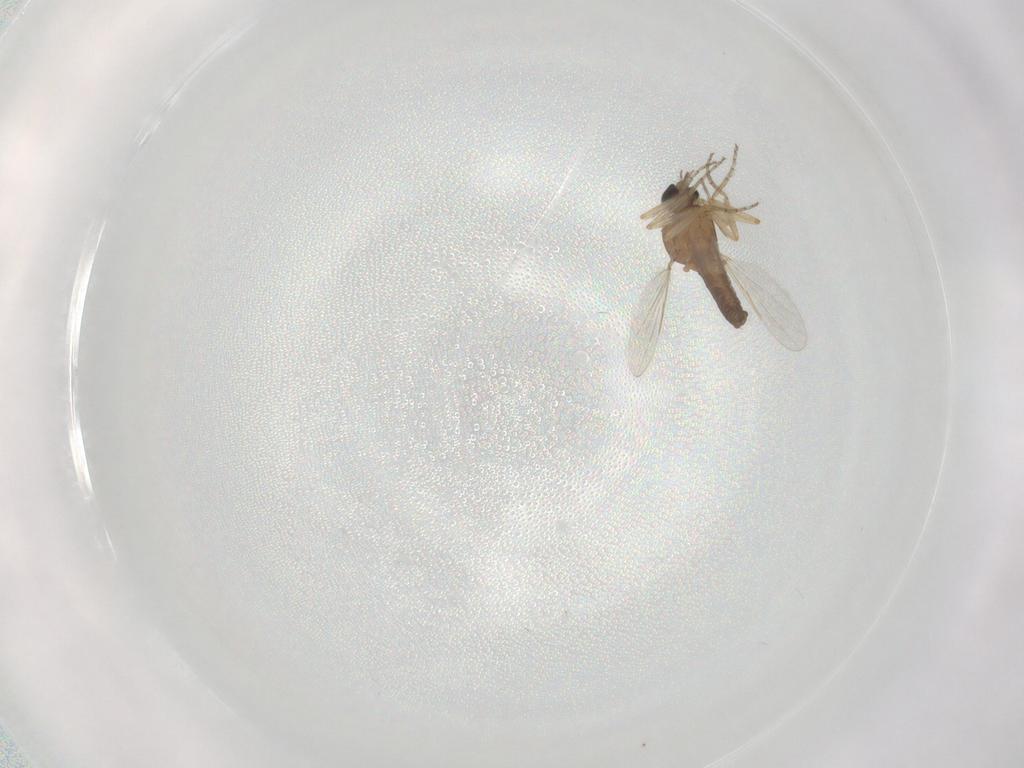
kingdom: Animalia
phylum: Arthropoda
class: Insecta
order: Diptera
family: Ceratopogonidae
